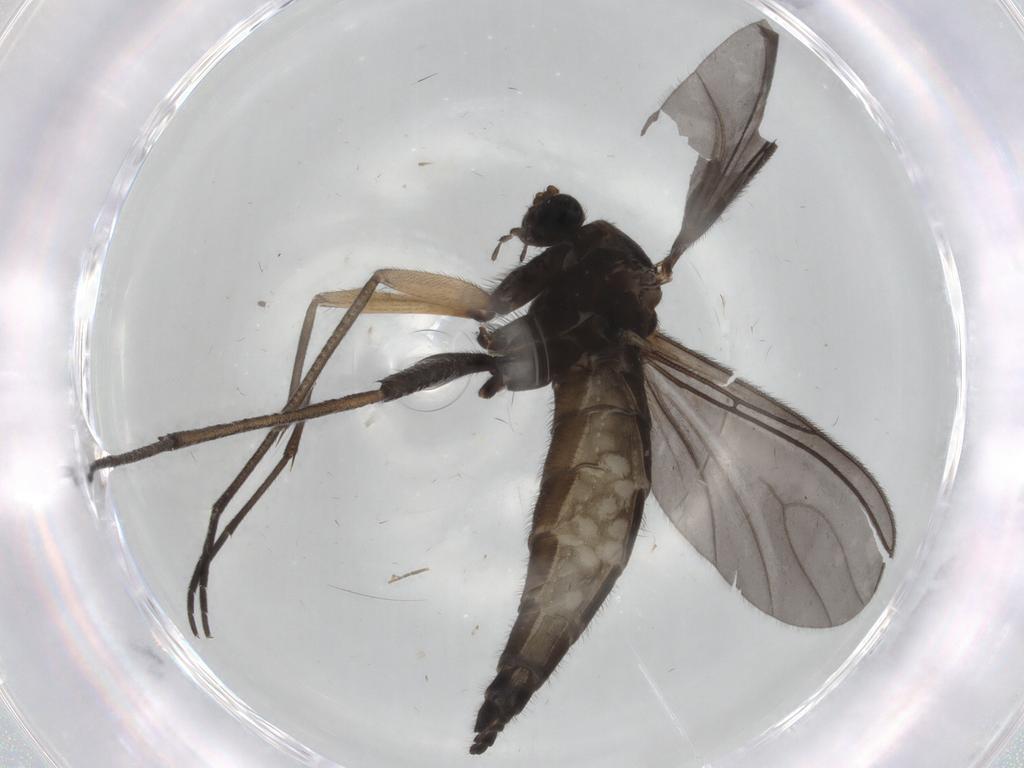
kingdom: Animalia
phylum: Arthropoda
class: Insecta
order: Diptera
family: Sciaridae
